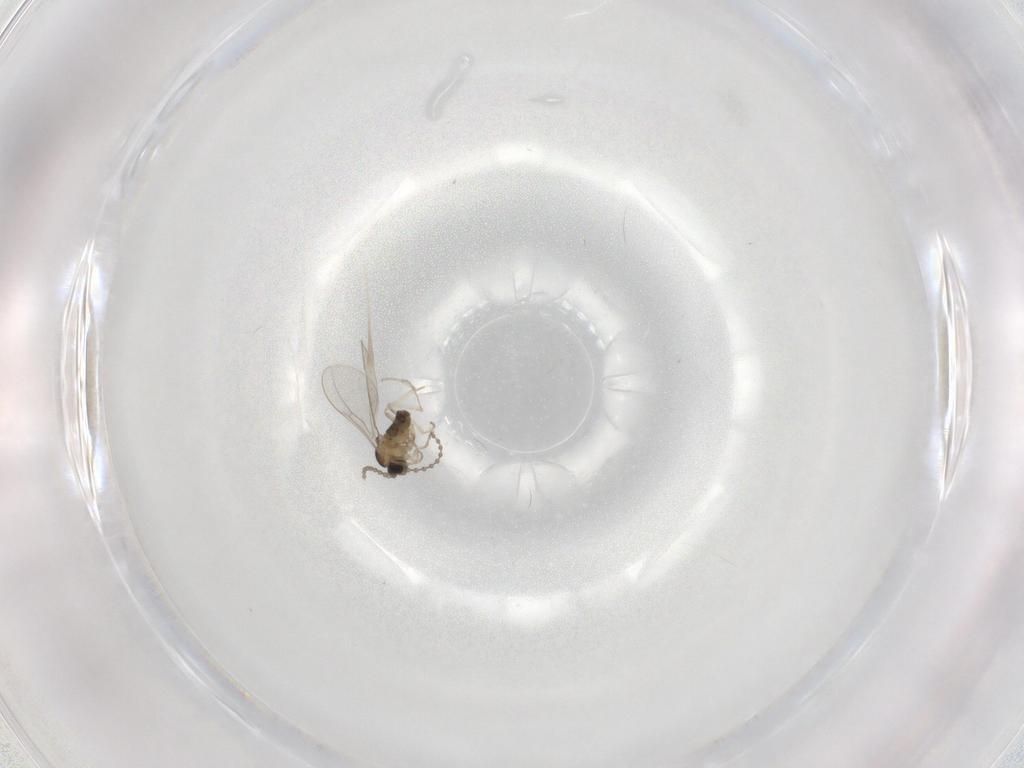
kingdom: Animalia
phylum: Arthropoda
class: Insecta
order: Diptera
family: Cecidomyiidae
